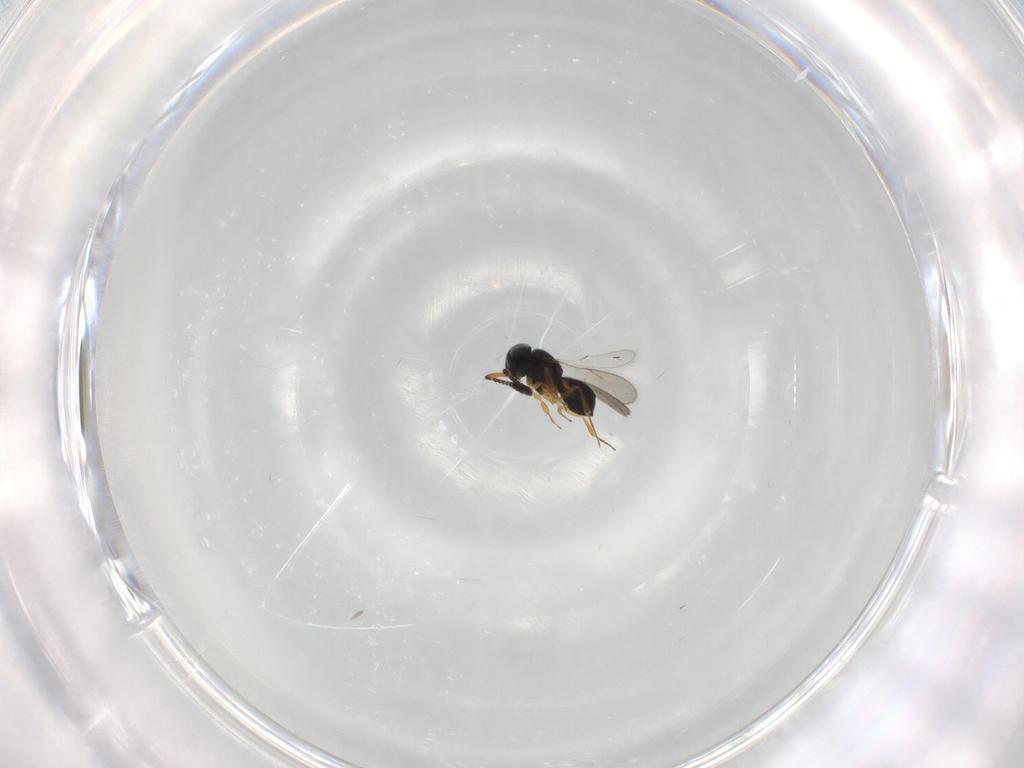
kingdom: Animalia
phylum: Arthropoda
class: Insecta
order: Hymenoptera
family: Scelionidae
